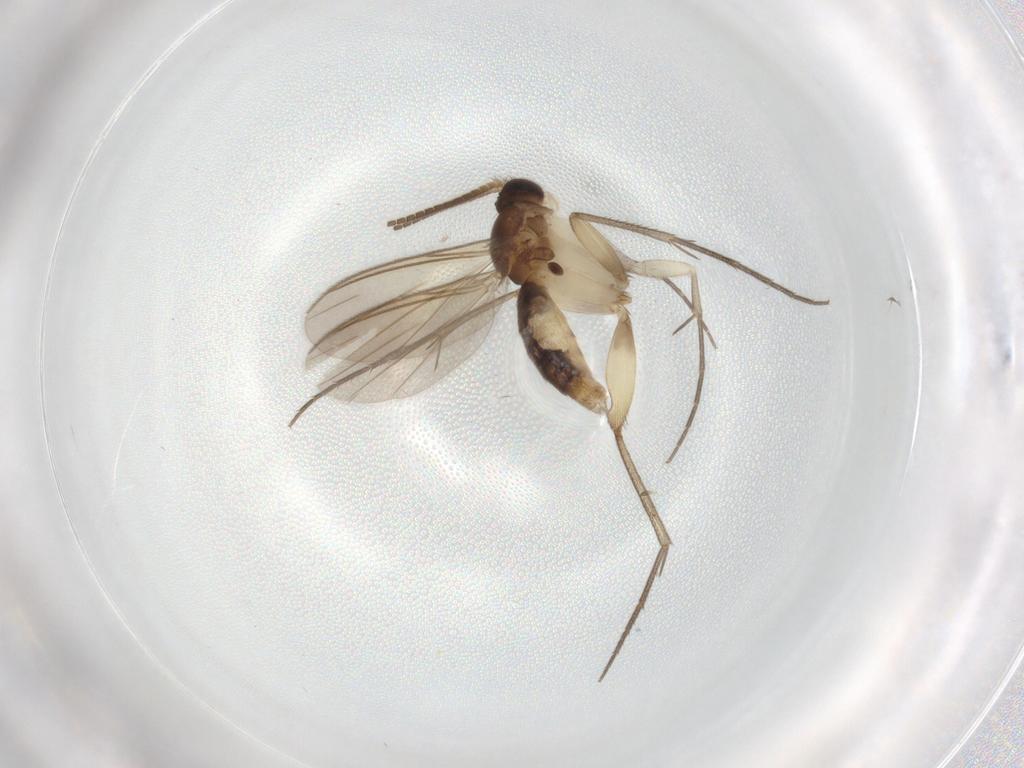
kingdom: Animalia
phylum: Arthropoda
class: Insecta
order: Diptera
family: Mycetophilidae
